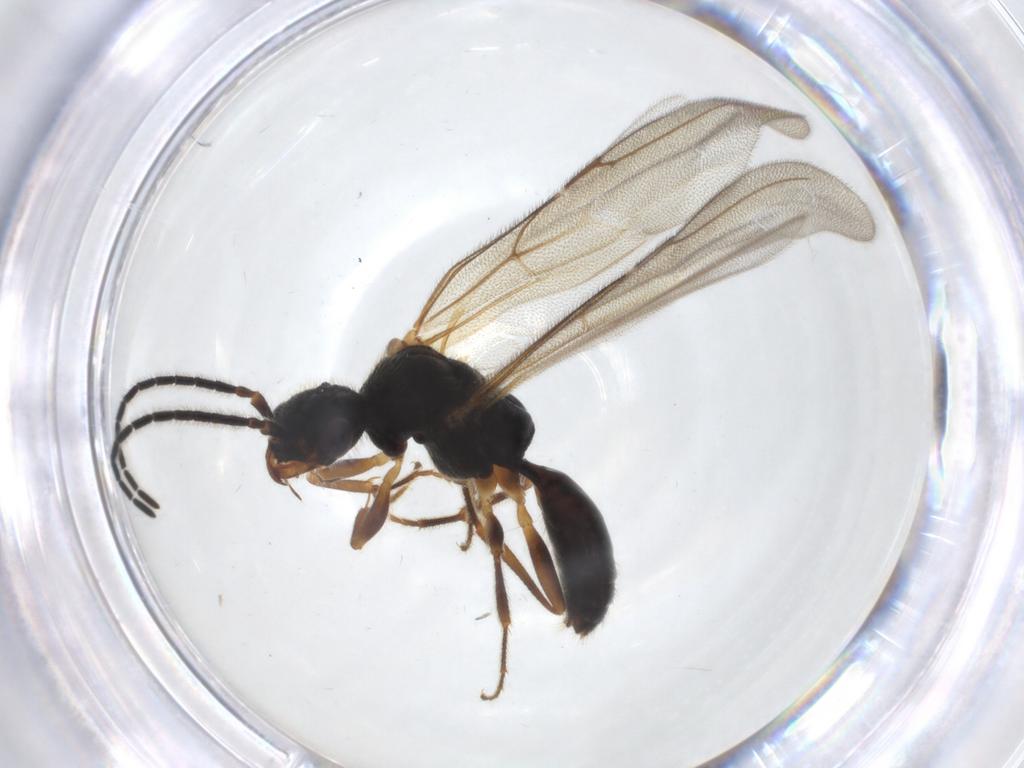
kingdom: Animalia
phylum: Arthropoda
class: Insecta
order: Hymenoptera
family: Bethylidae
